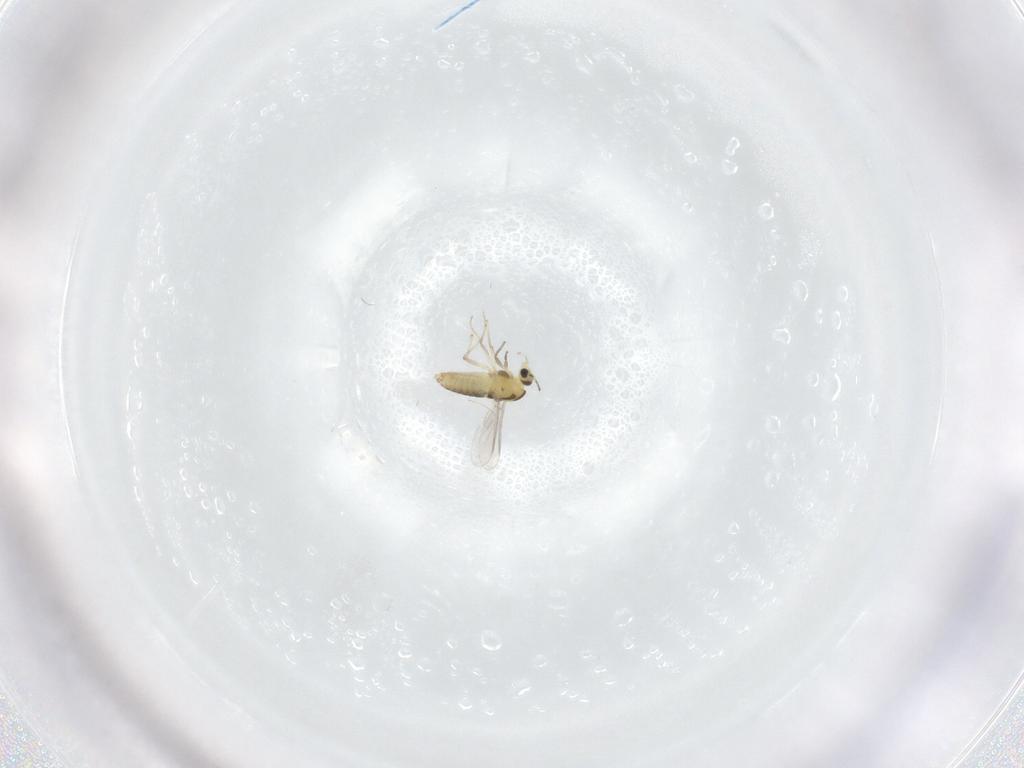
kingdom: Animalia
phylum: Arthropoda
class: Insecta
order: Diptera
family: Chironomidae
